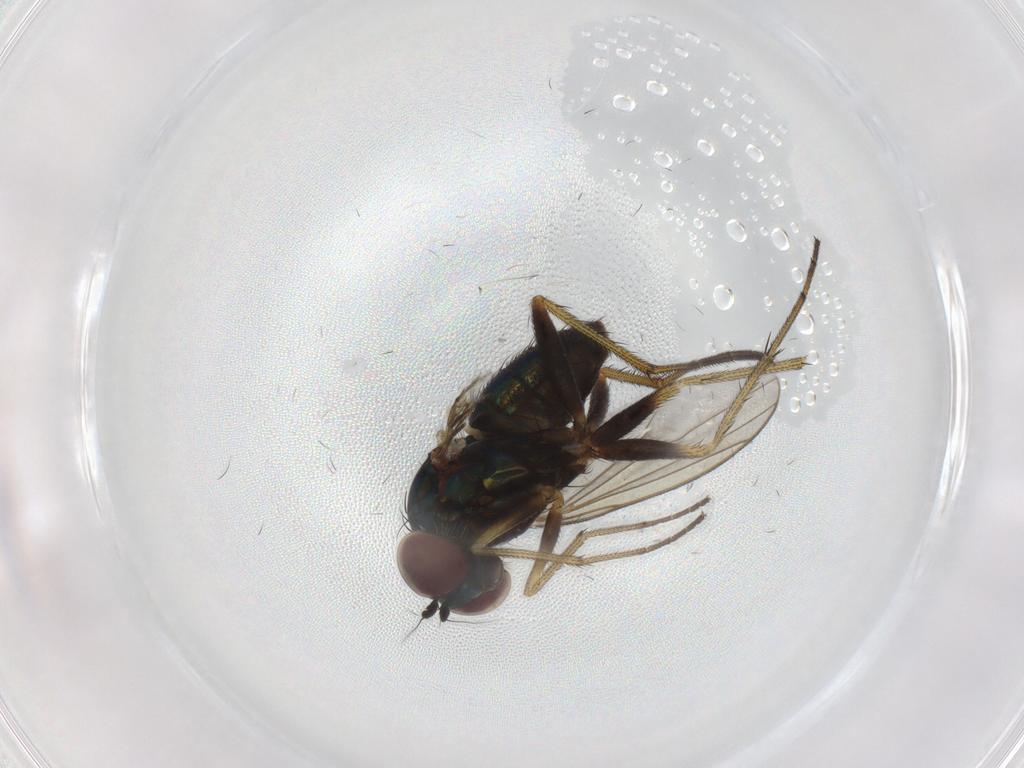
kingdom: Animalia
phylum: Arthropoda
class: Insecta
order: Diptera
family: Dolichopodidae
